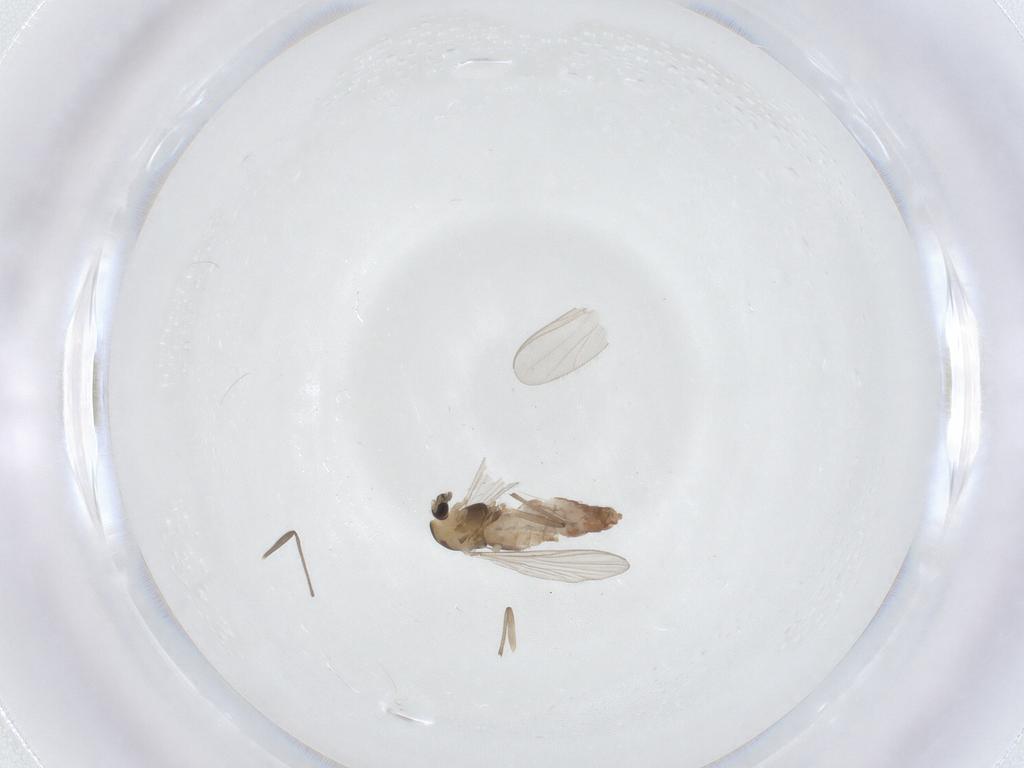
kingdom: Animalia
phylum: Arthropoda
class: Insecta
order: Diptera
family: Chironomidae
